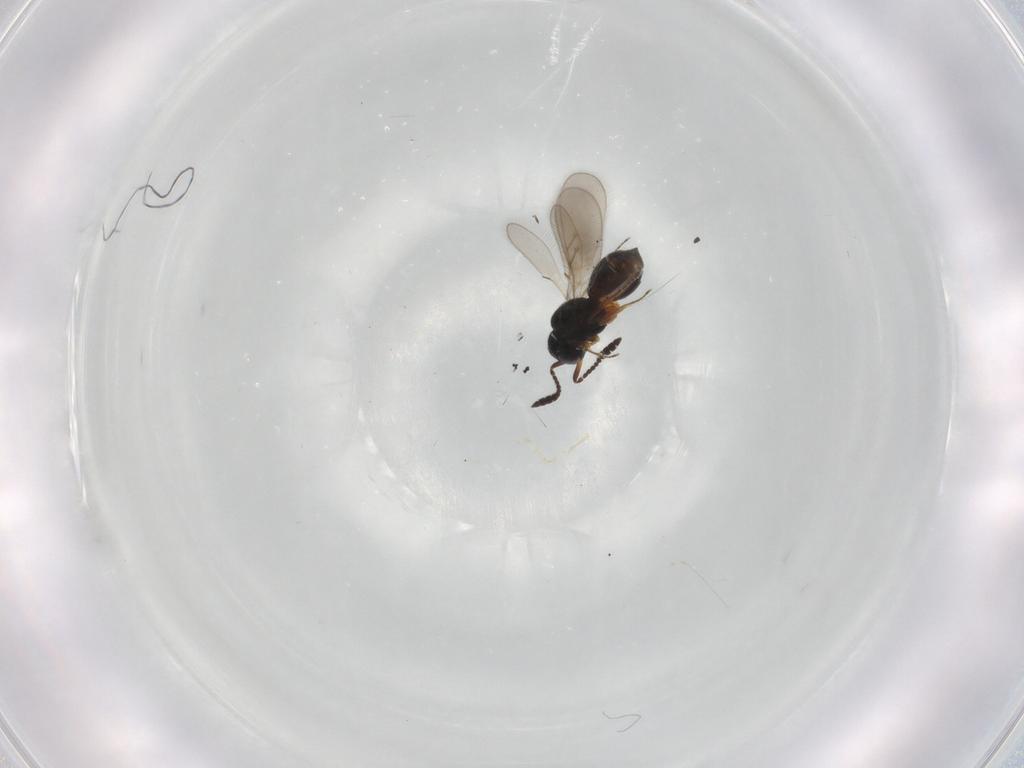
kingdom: Animalia
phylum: Arthropoda
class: Insecta
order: Hymenoptera
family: Scelionidae
